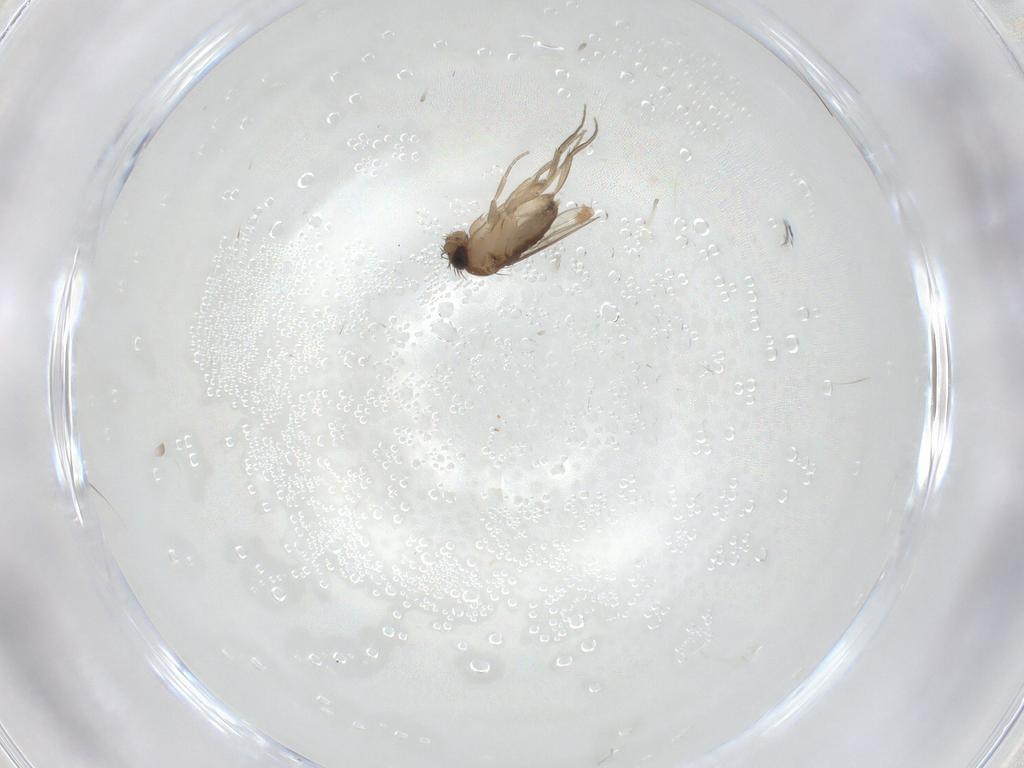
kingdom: Animalia
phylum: Arthropoda
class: Insecta
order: Diptera
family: Phoridae
